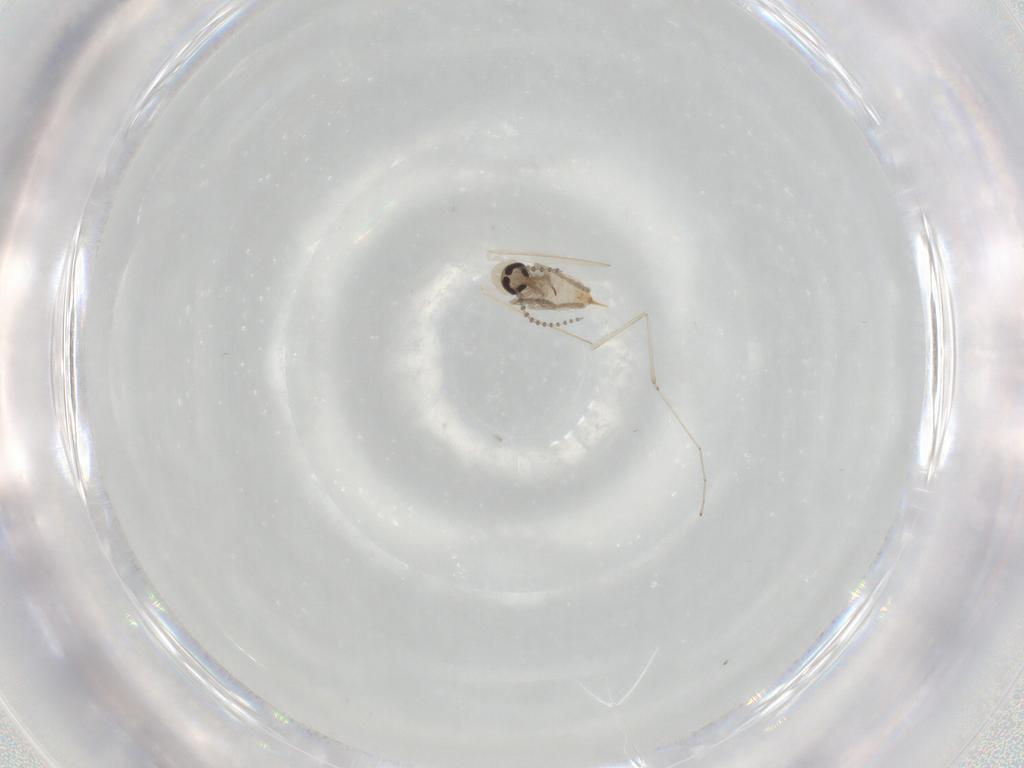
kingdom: Animalia
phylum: Arthropoda
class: Insecta
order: Diptera
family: Psychodidae
